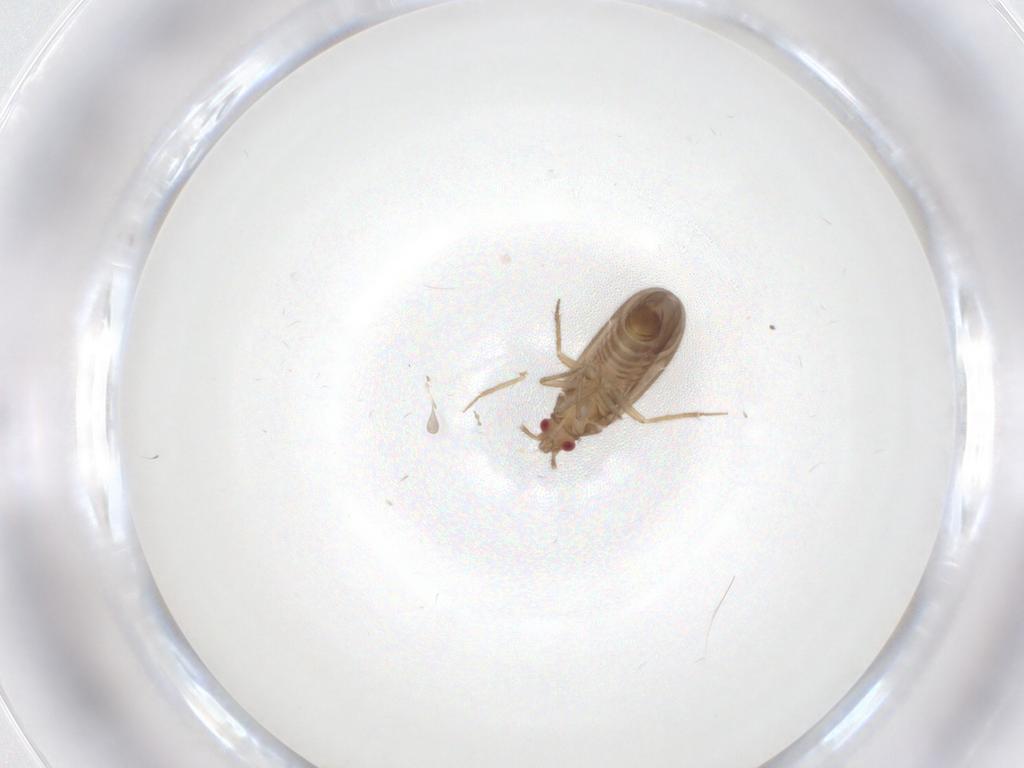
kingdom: Animalia
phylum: Arthropoda
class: Insecta
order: Hemiptera
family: Ceratocombidae
